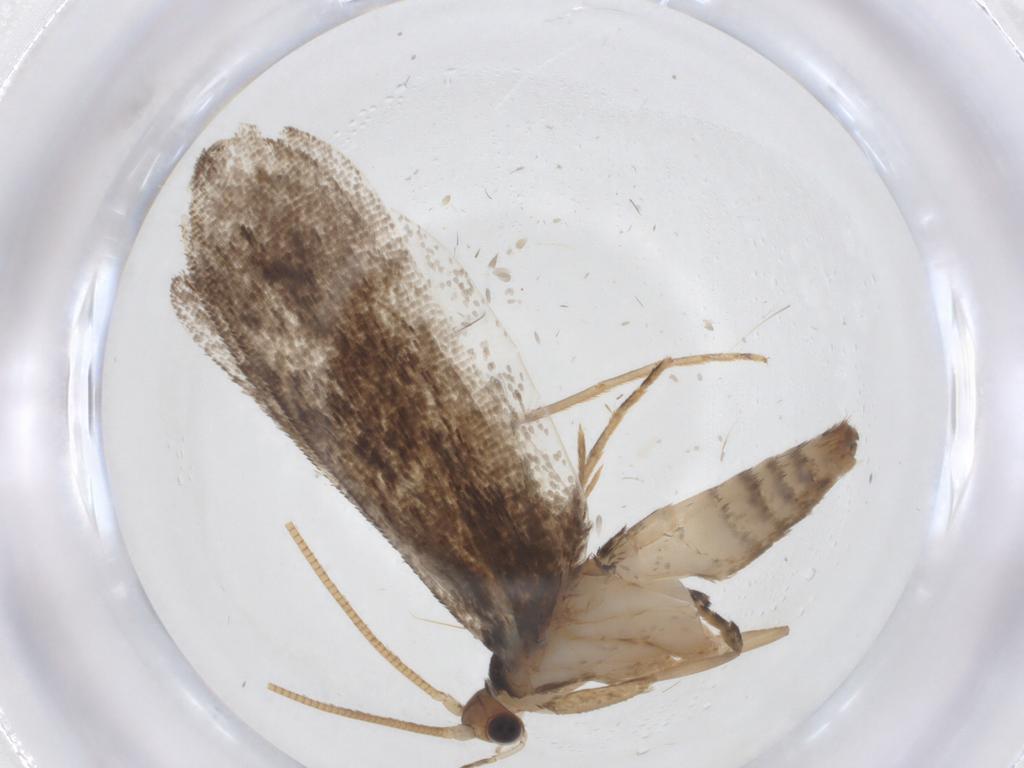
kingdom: Animalia
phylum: Arthropoda
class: Insecta
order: Lepidoptera
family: Tineidae
